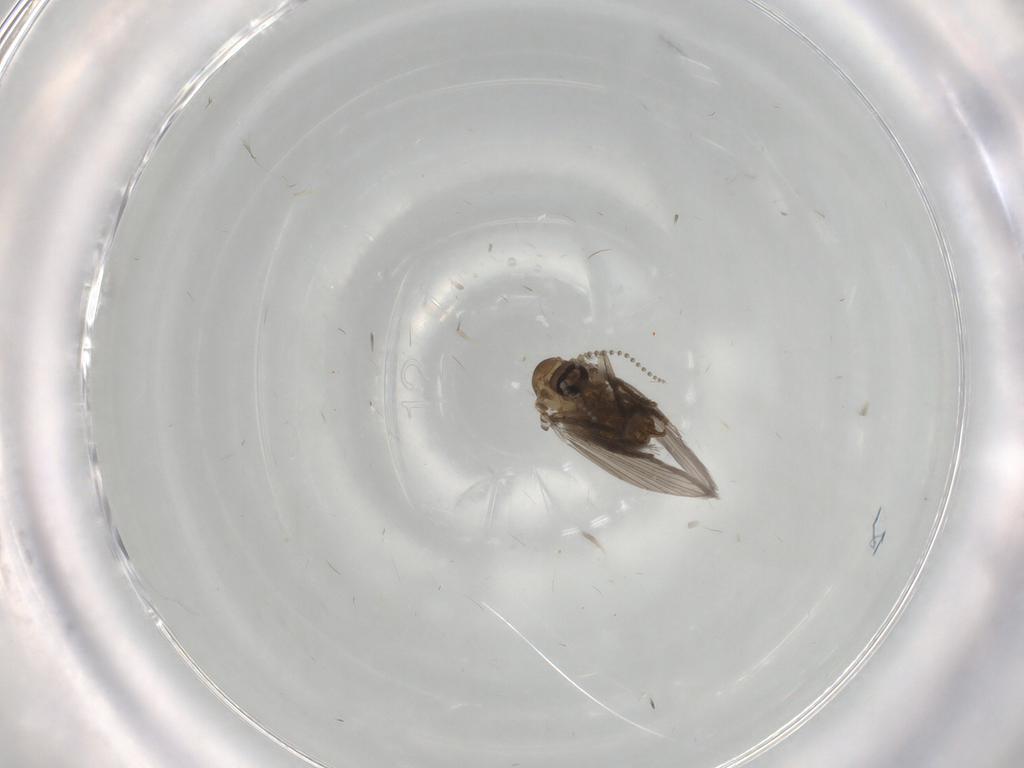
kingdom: Animalia
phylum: Arthropoda
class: Insecta
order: Diptera
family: Psychodidae
